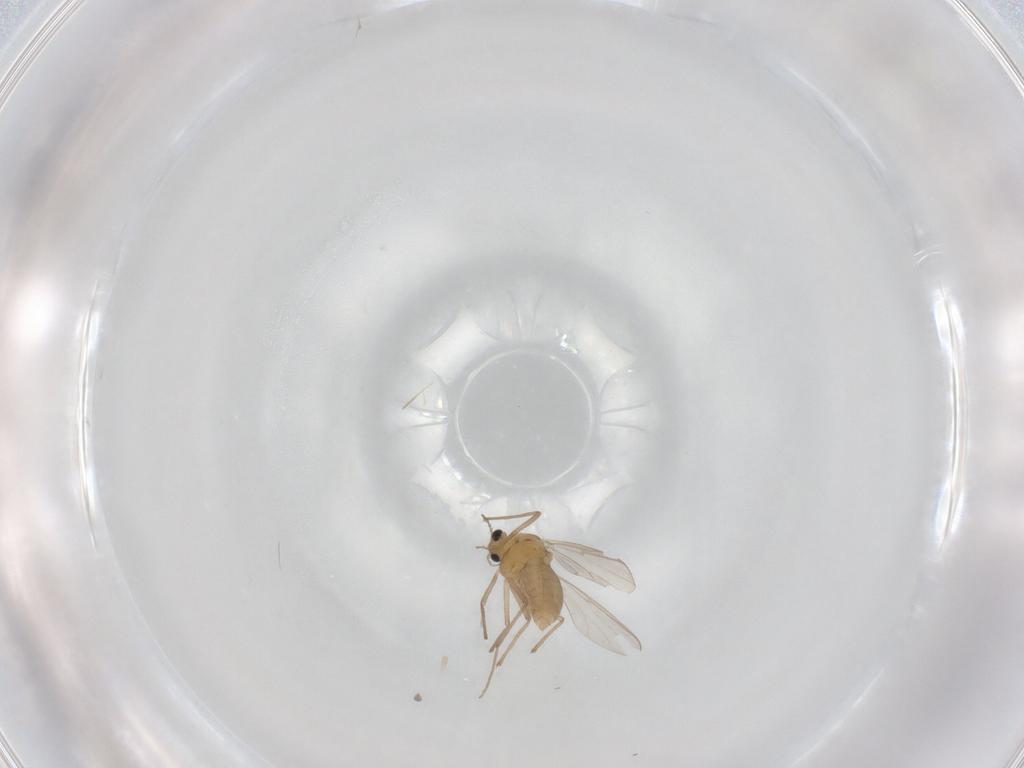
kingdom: Animalia
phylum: Arthropoda
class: Insecta
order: Diptera
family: Chironomidae
